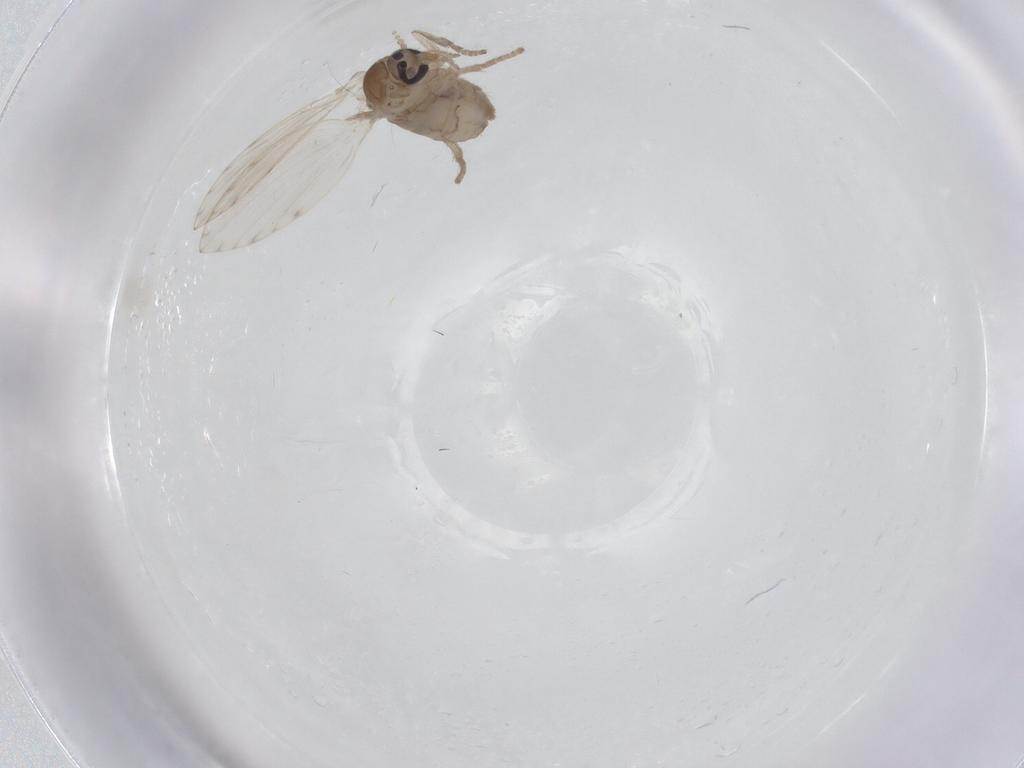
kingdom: Animalia
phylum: Arthropoda
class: Insecta
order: Diptera
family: Psychodidae
